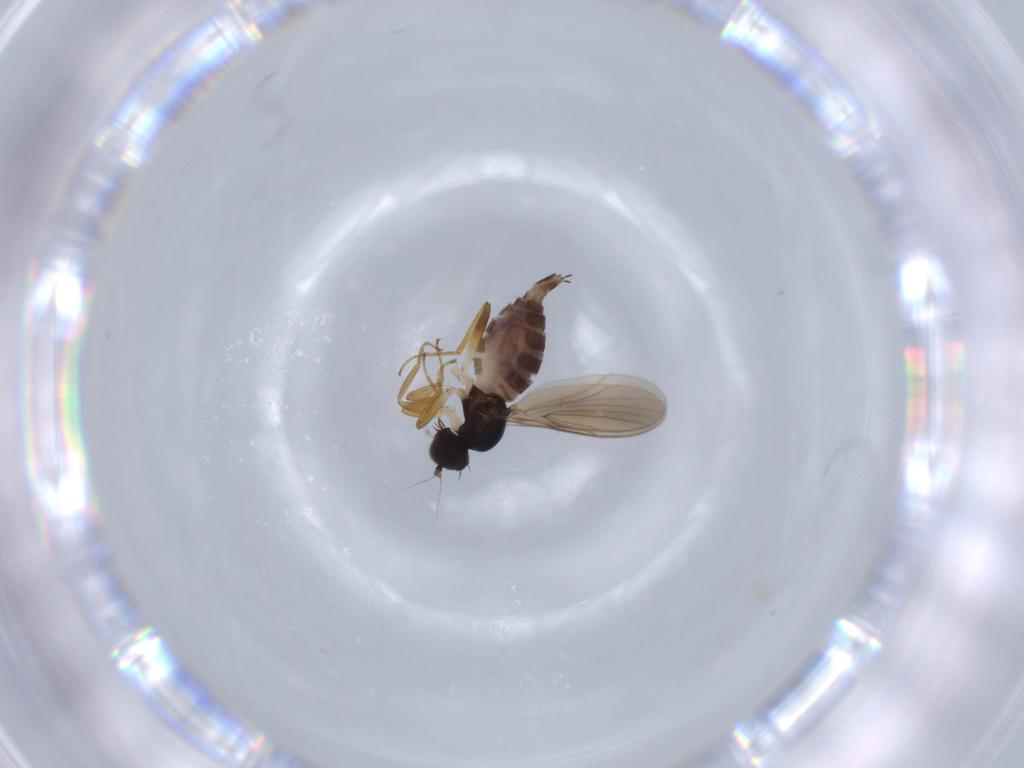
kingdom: Animalia
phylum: Arthropoda
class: Insecta
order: Diptera
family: Hybotidae
